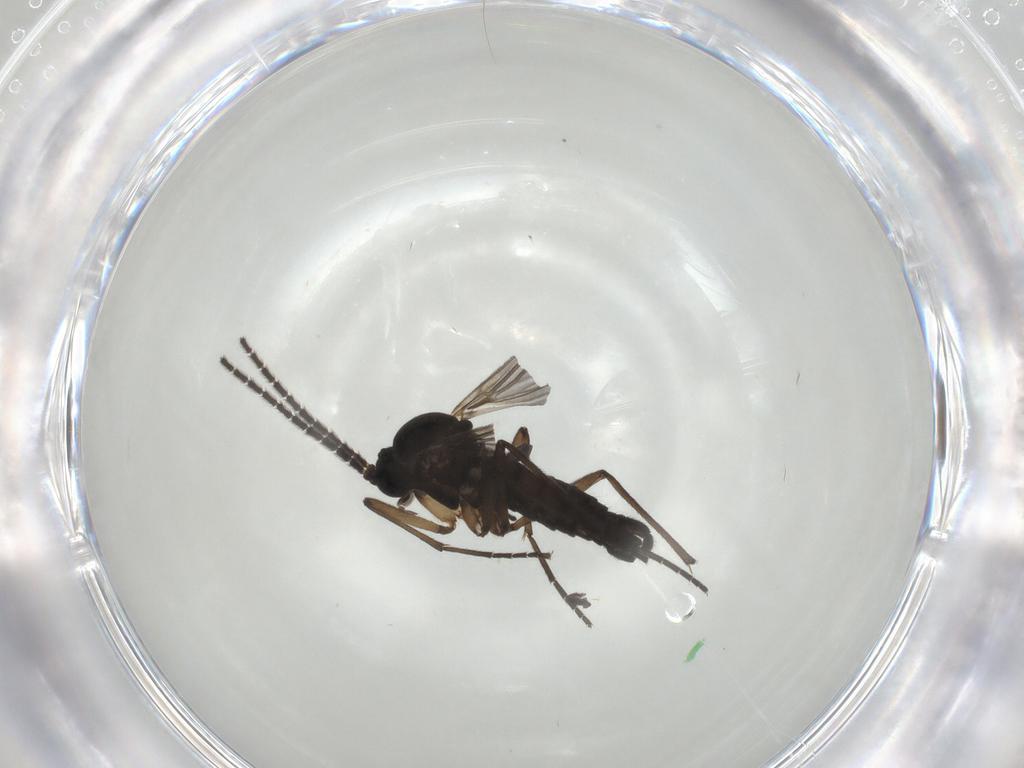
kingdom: Animalia
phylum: Arthropoda
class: Insecta
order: Diptera
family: Sciaridae
